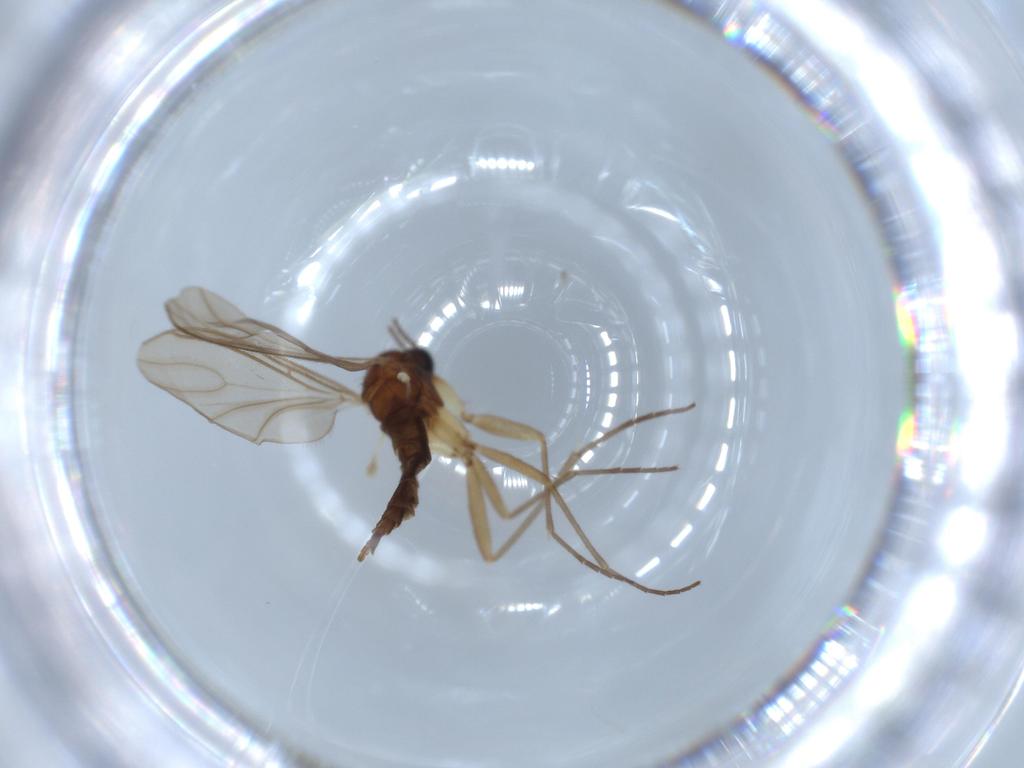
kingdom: Animalia
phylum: Arthropoda
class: Insecta
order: Diptera
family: Sciaridae
